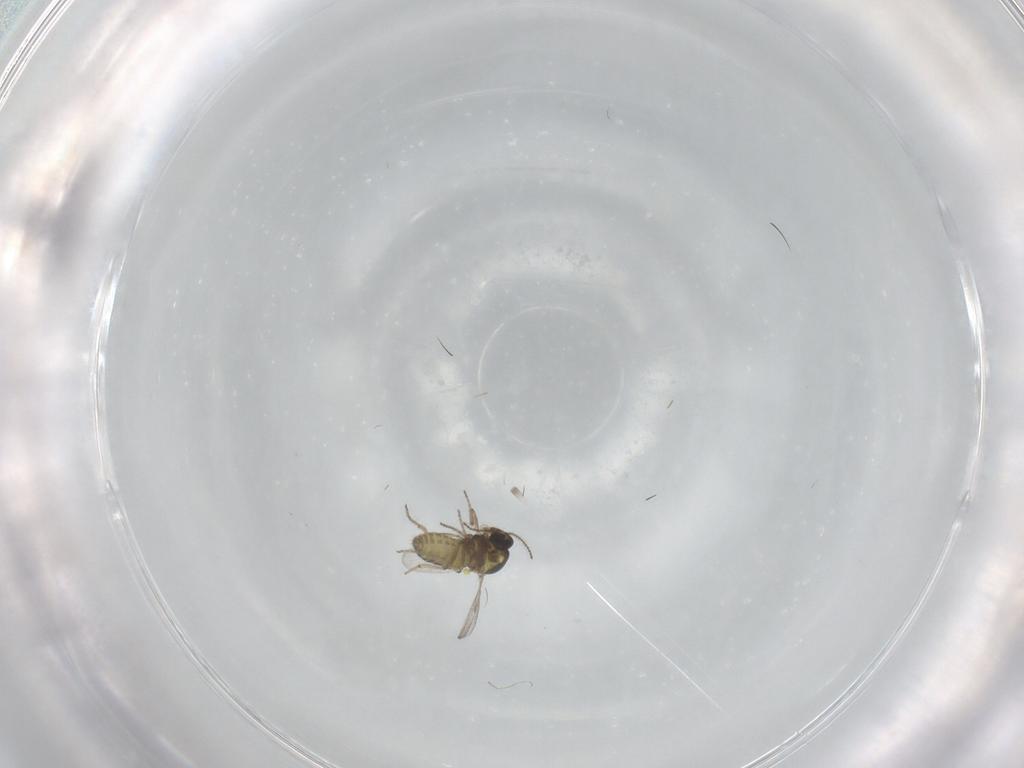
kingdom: Animalia
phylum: Arthropoda
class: Insecta
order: Diptera
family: Ceratopogonidae
